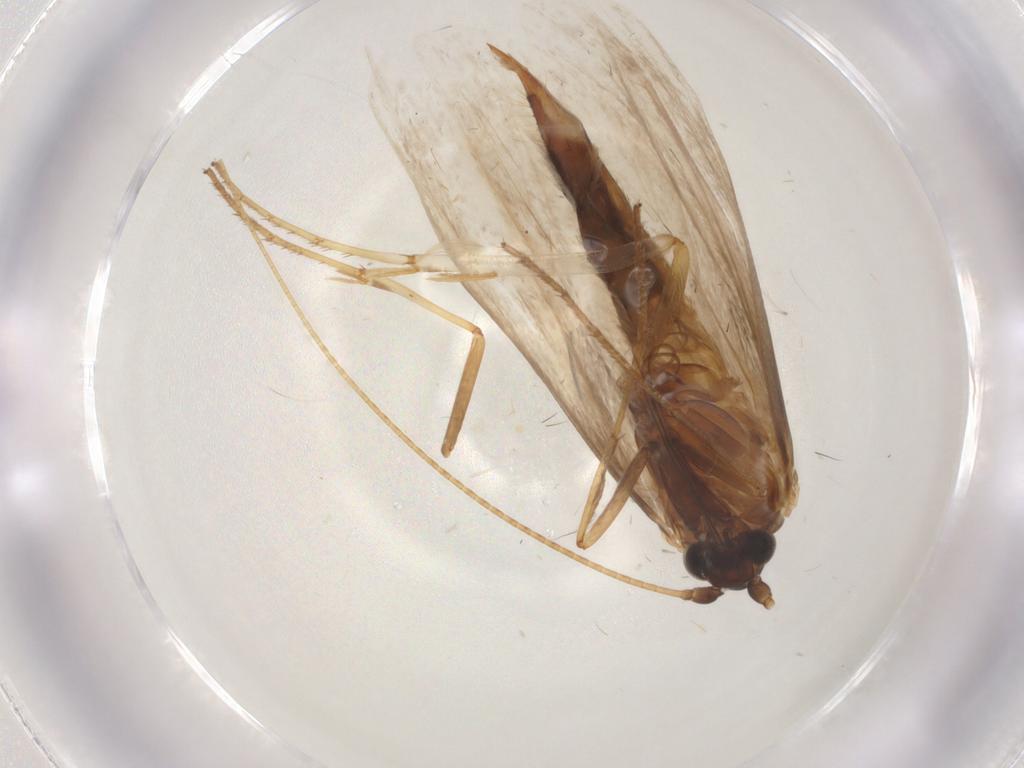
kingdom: Animalia
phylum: Arthropoda
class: Insecta
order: Lepidoptera
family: Adelidae
